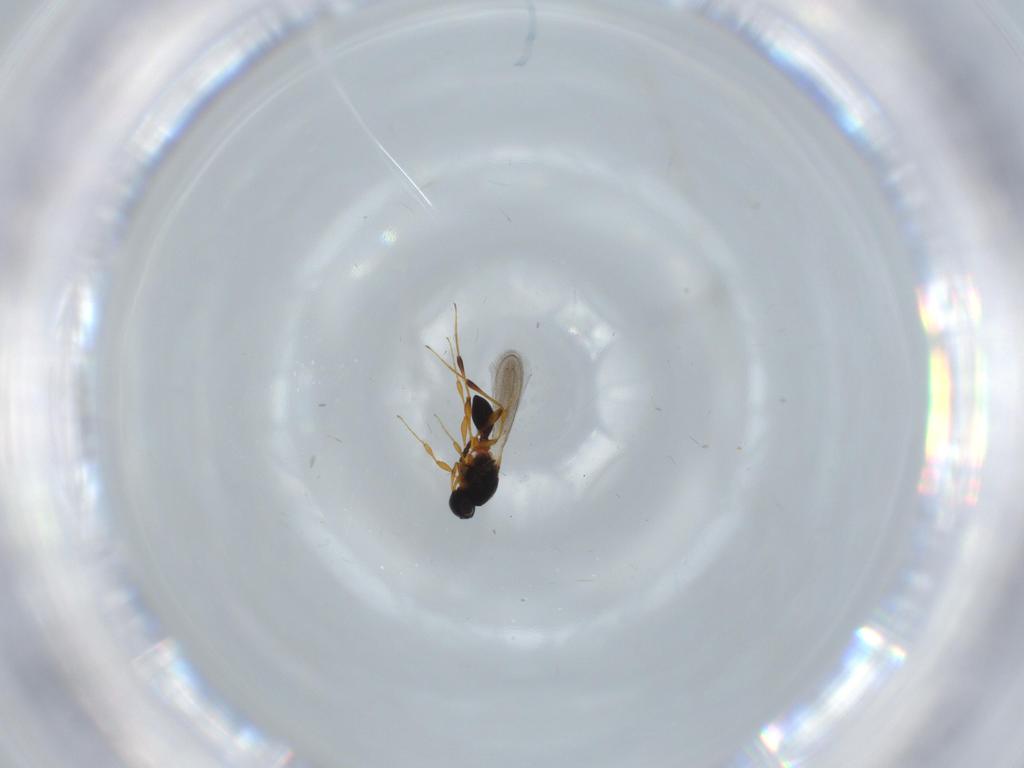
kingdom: Animalia
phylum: Arthropoda
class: Insecta
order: Hymenoptera
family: Platygastridae
